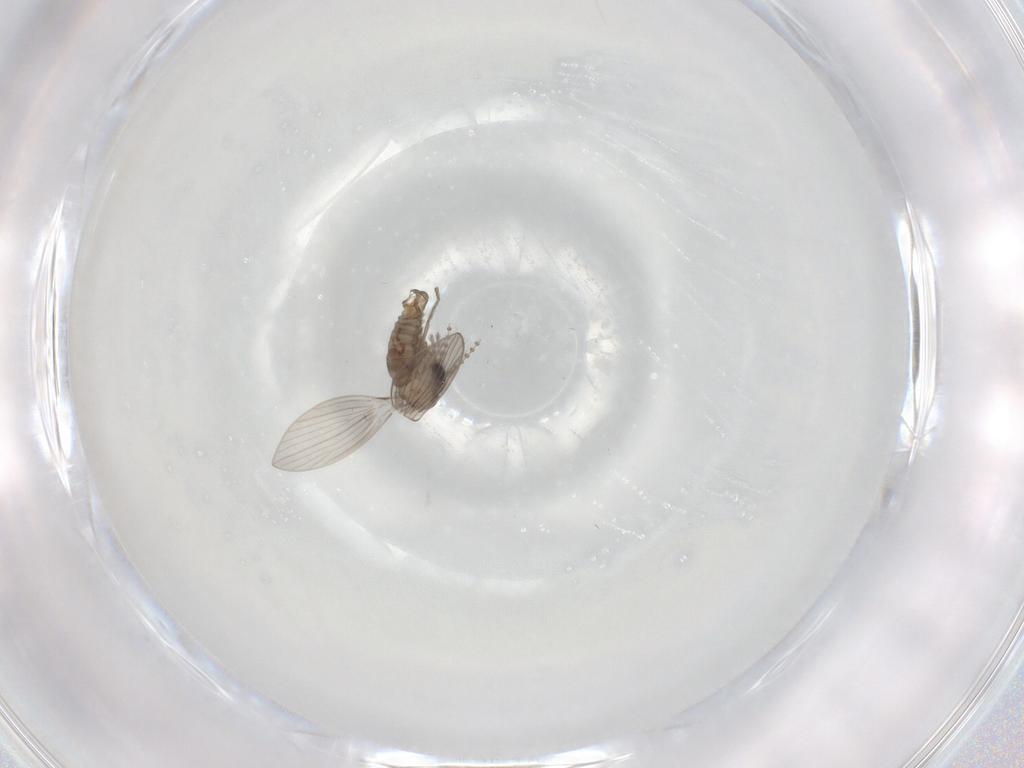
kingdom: Animalia
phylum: Arthropoda
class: Insecta
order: Diptera
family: Psychodidae
